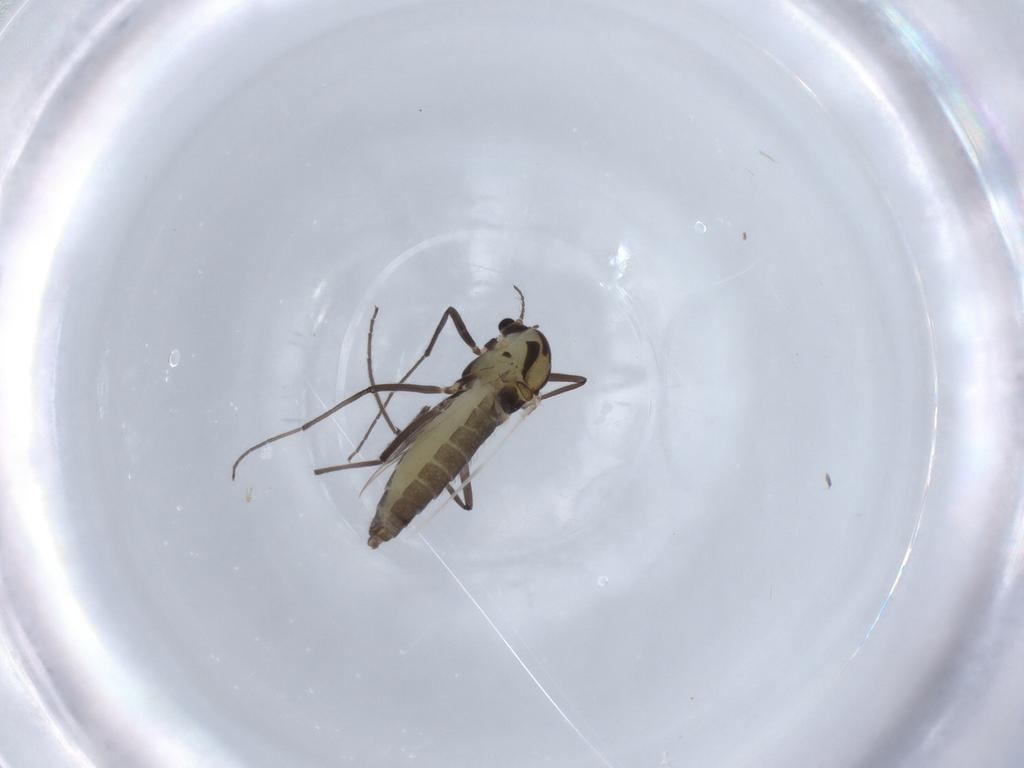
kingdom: Animalia
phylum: Arthropoda
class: Insecta
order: Diptera
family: Chironomidae
